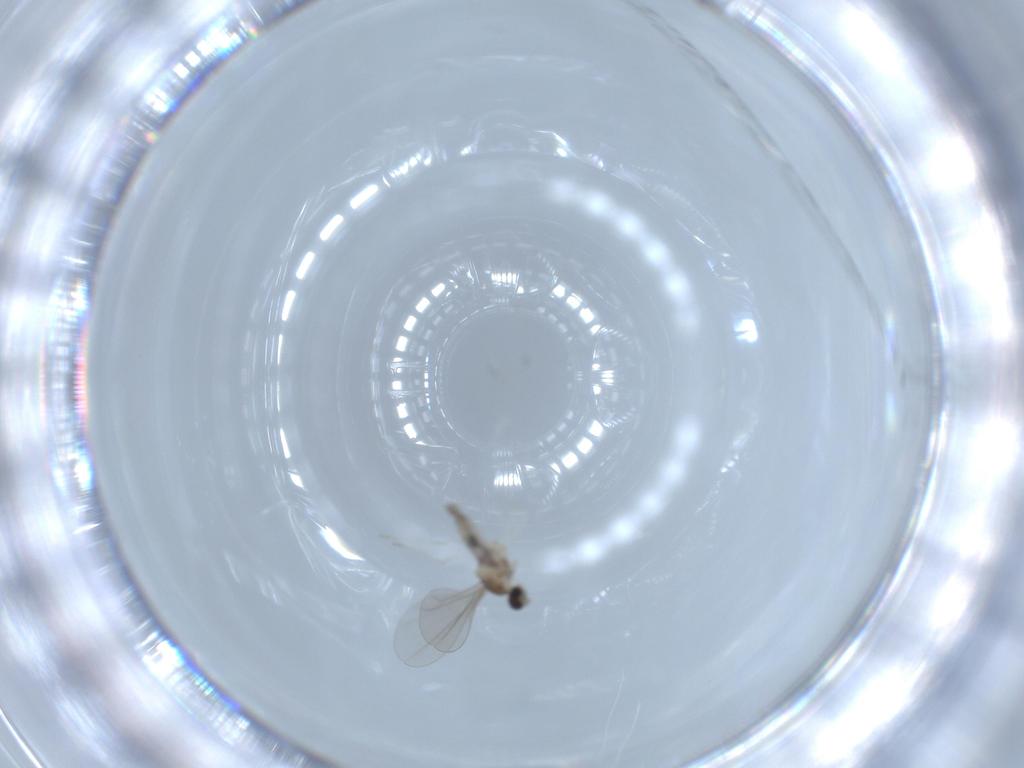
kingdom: Animalia
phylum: Arthropoda
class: Insecta
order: Diptera
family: Cecidomyiidae
